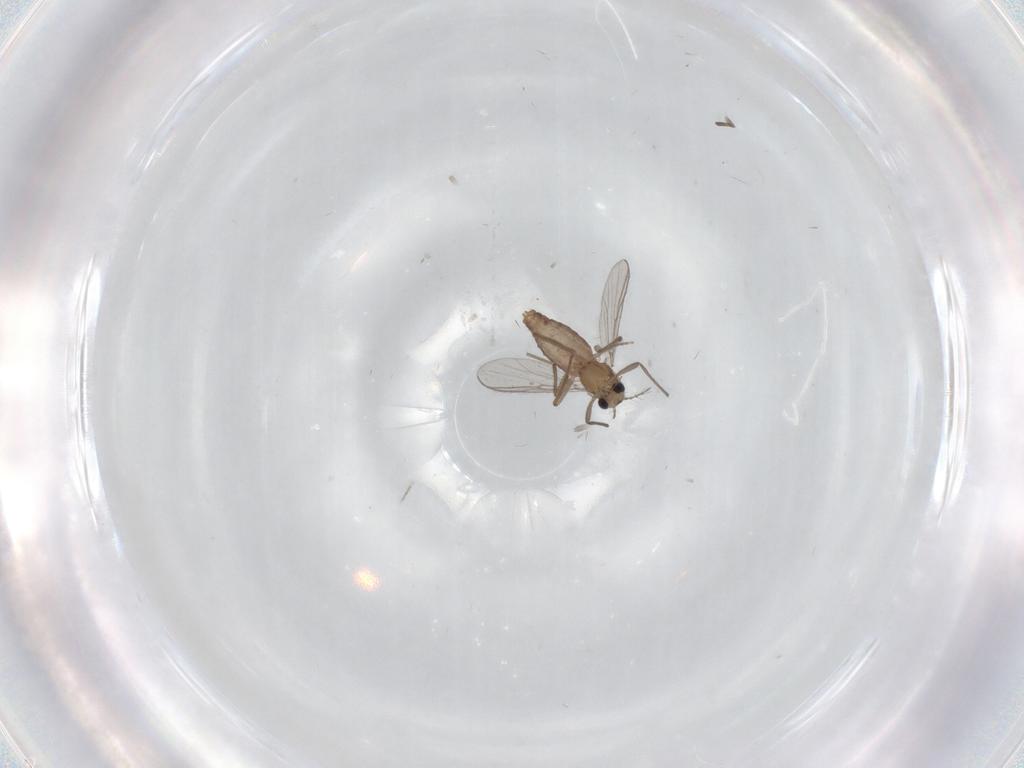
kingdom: Animalia
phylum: Arthropoda
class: Insecta
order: Diptera
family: Chironomidae
